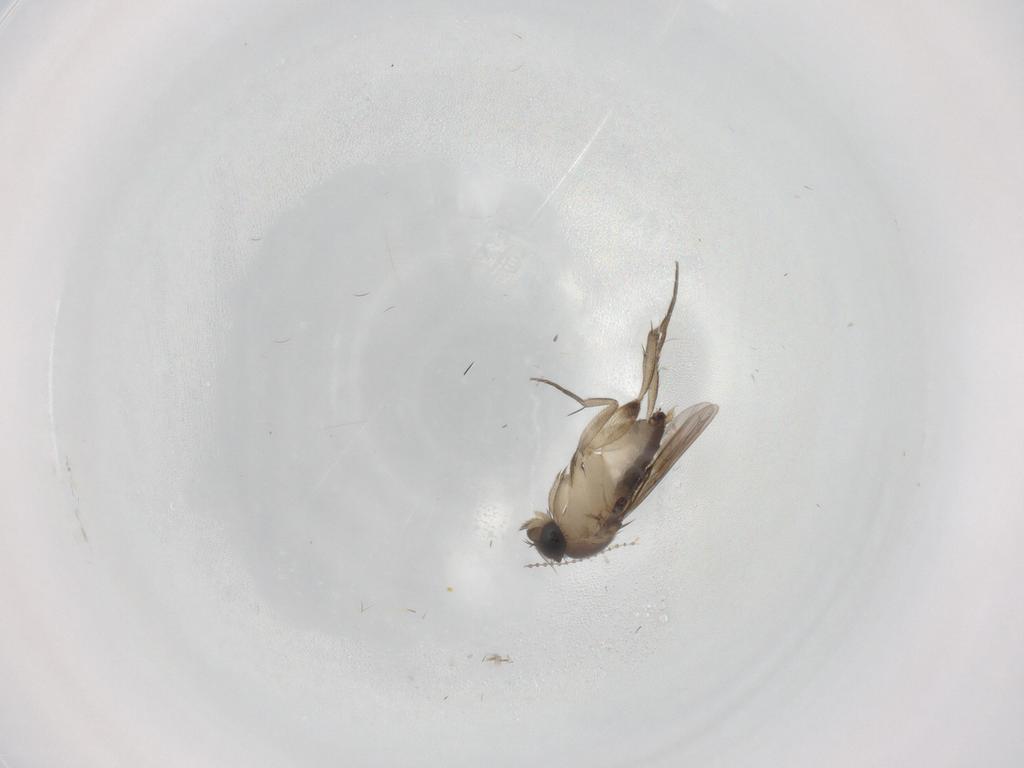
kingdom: Animalia
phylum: Arthropoda
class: Insecta
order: Diptera
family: Phoridae
